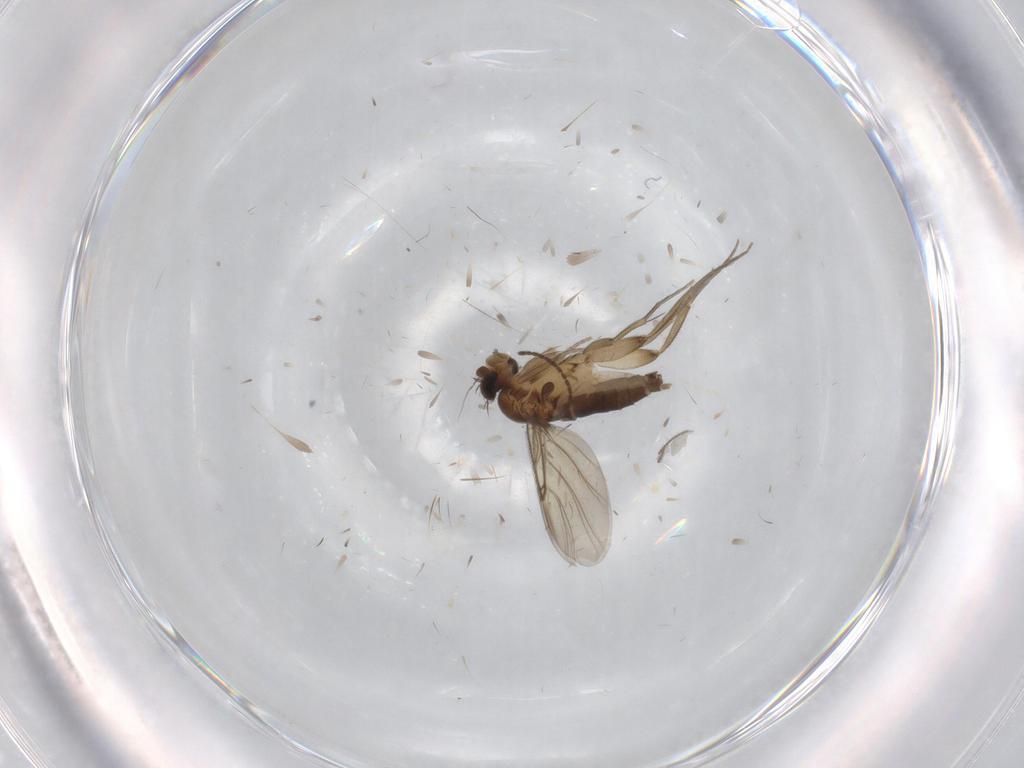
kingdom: Animalia
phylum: Arthropoda
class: Insecta
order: Diptera
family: Phoridae
